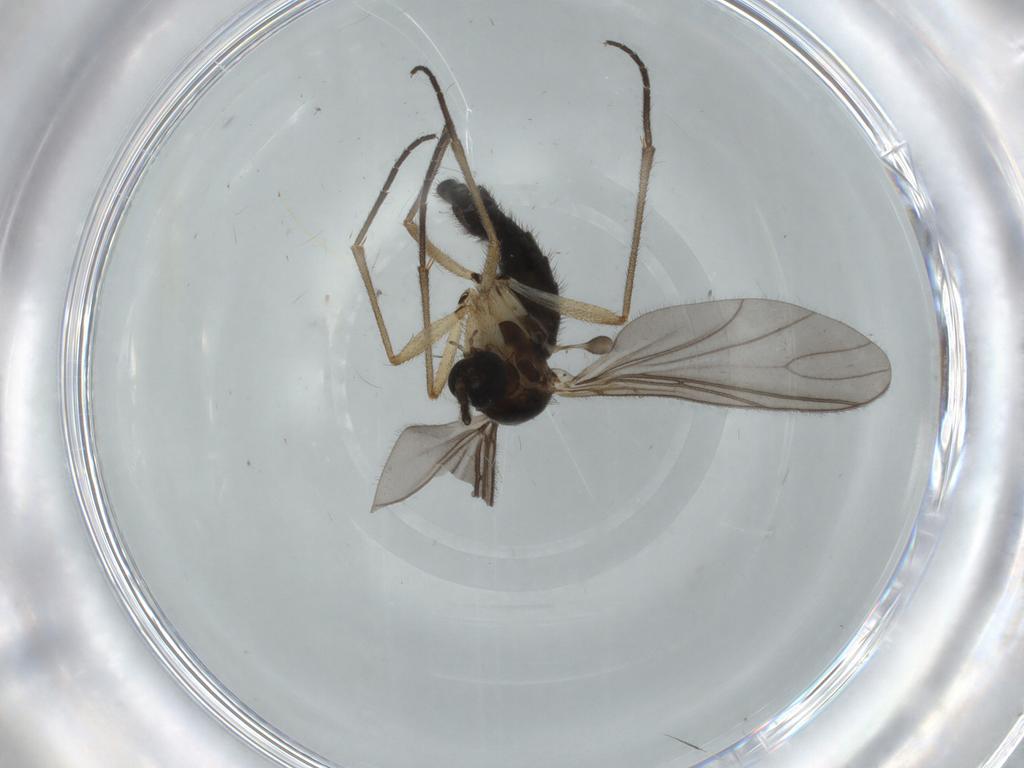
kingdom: Animalia
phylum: Arthropoda
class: Insecta
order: Diptera
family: Sciaridae
